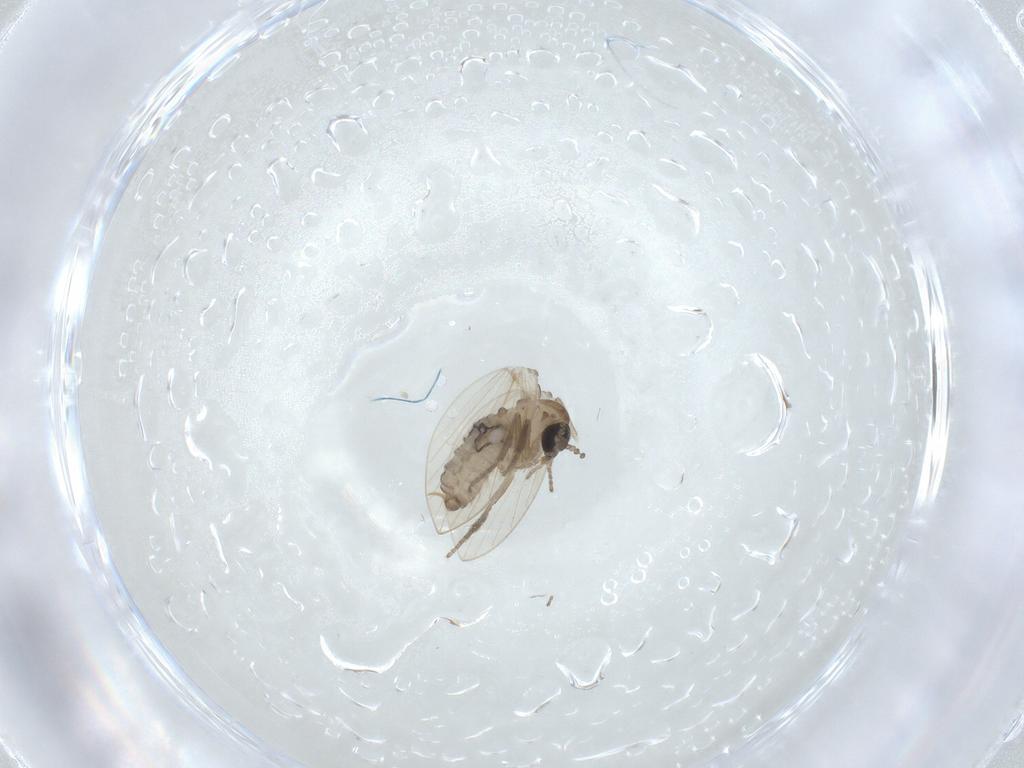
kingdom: Animalia
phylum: Arthropoda
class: Insecta
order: Diptera
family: Psychodidae
